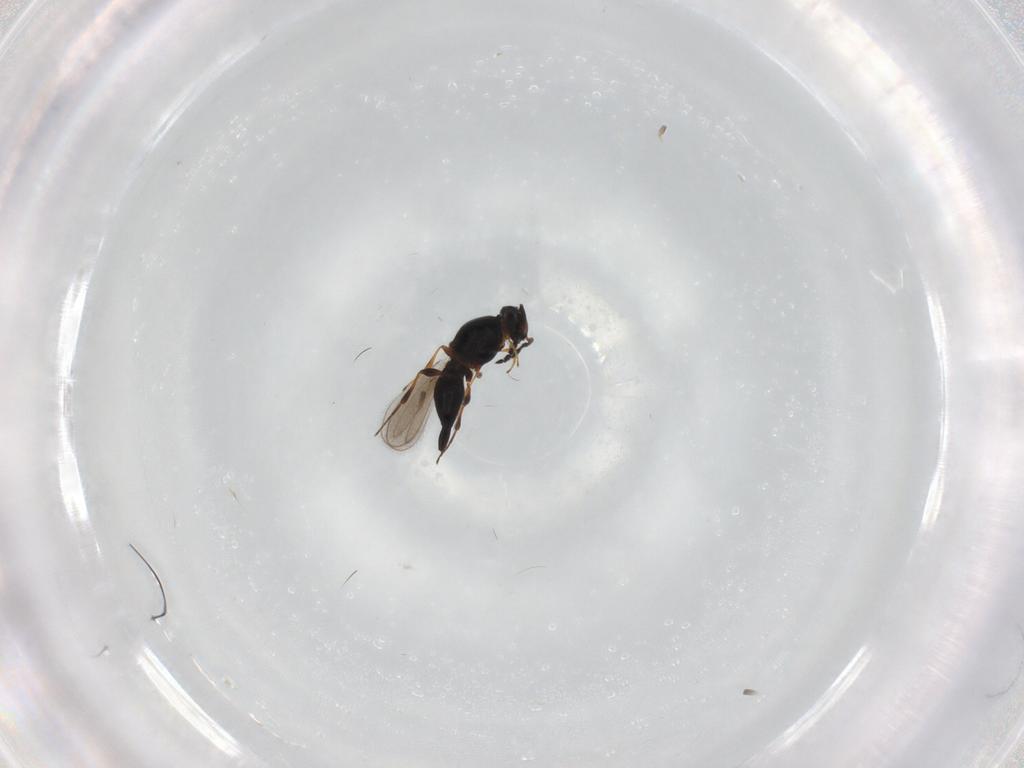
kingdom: Animalia
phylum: Arthropoda
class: Insecta
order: Hymenoptera
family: Platygastridae
